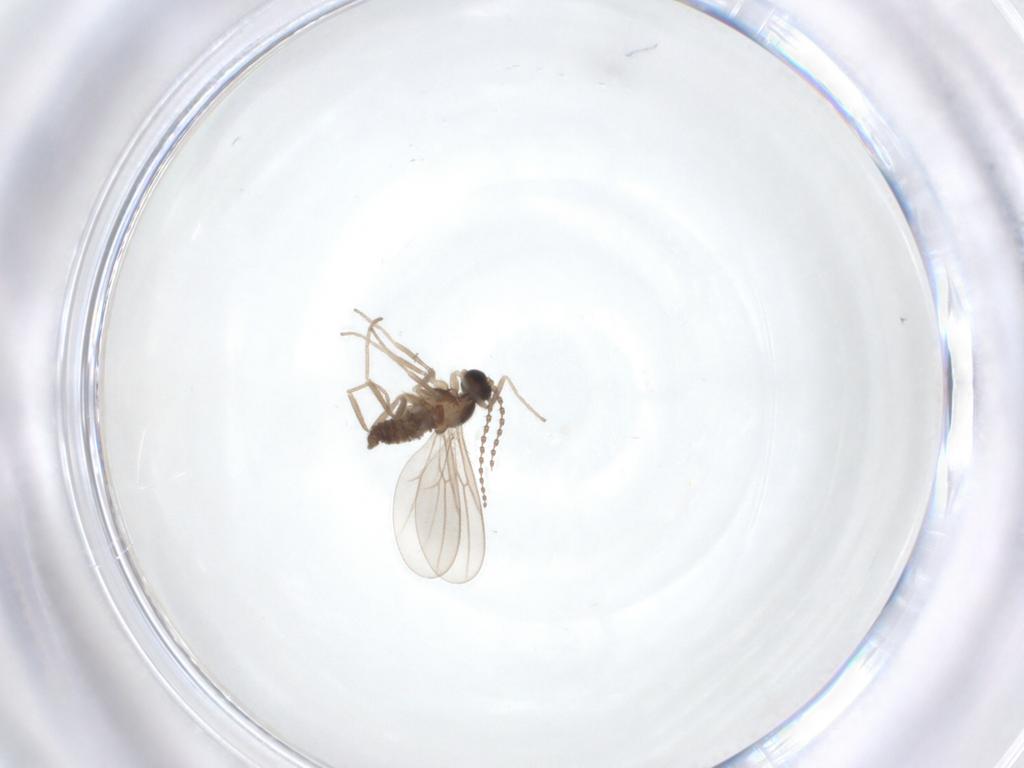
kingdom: Animalia
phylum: Arthropoda
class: Insecta
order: Diptera
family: Cecidomyiidae
